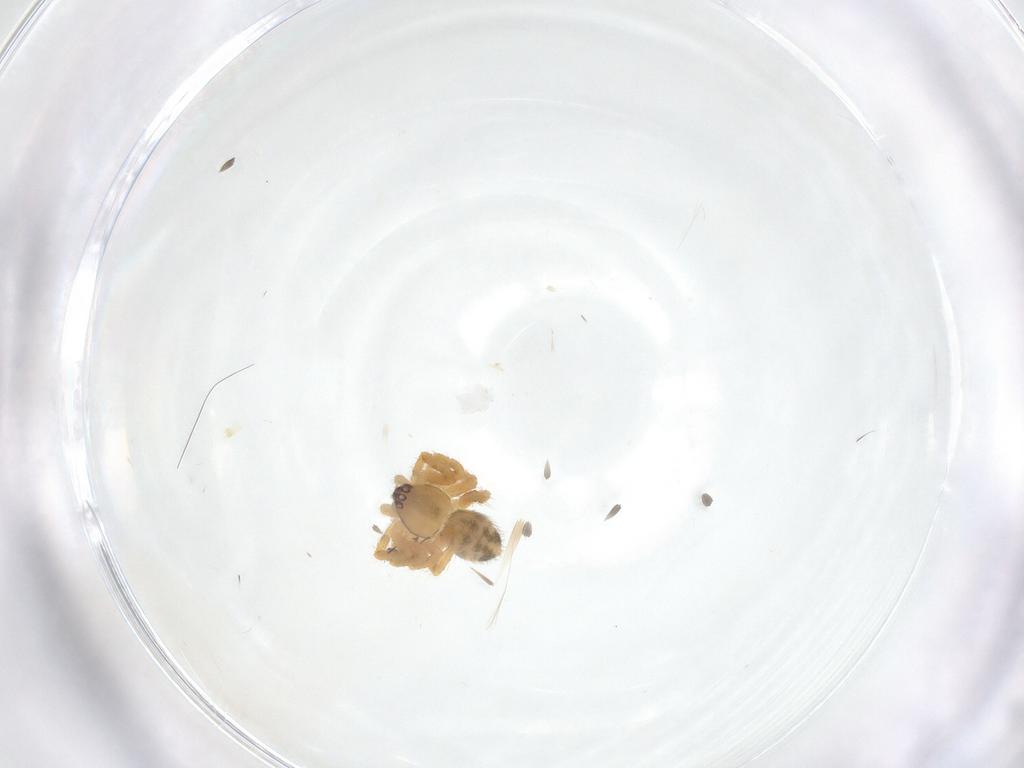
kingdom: Animalia
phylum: Arthropoda
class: Arachnida
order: Araneae
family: Theridiidae
